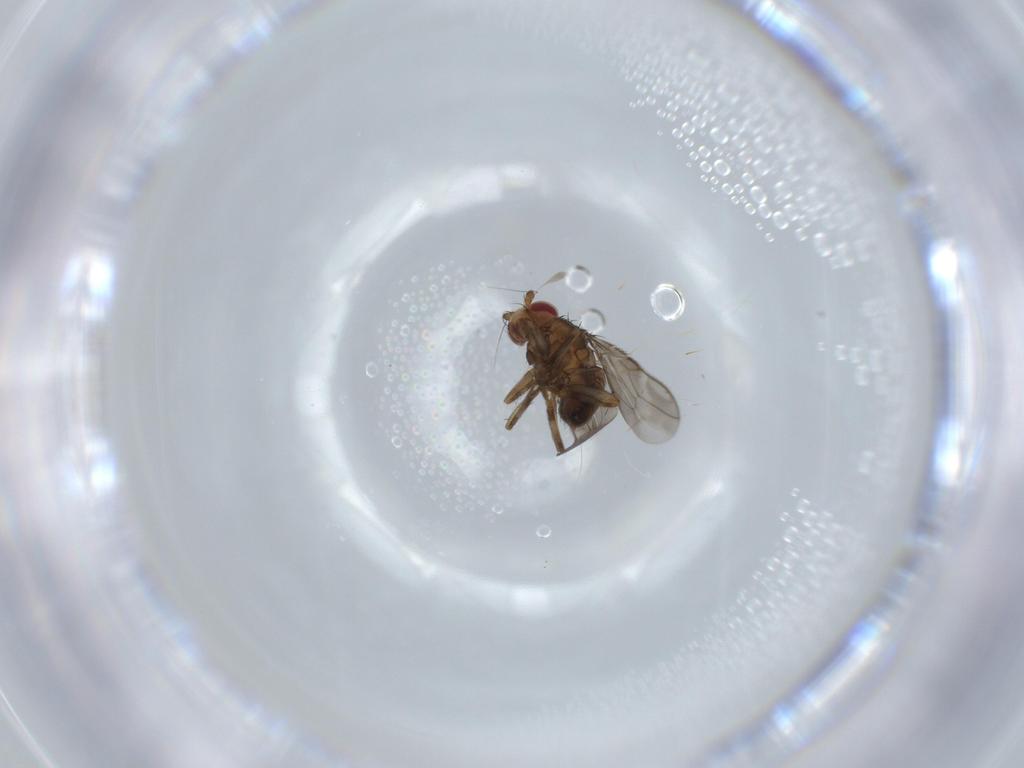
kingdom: Animalia
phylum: Arthropoda
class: Insecta
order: Diptera
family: Sphaeroceridae
